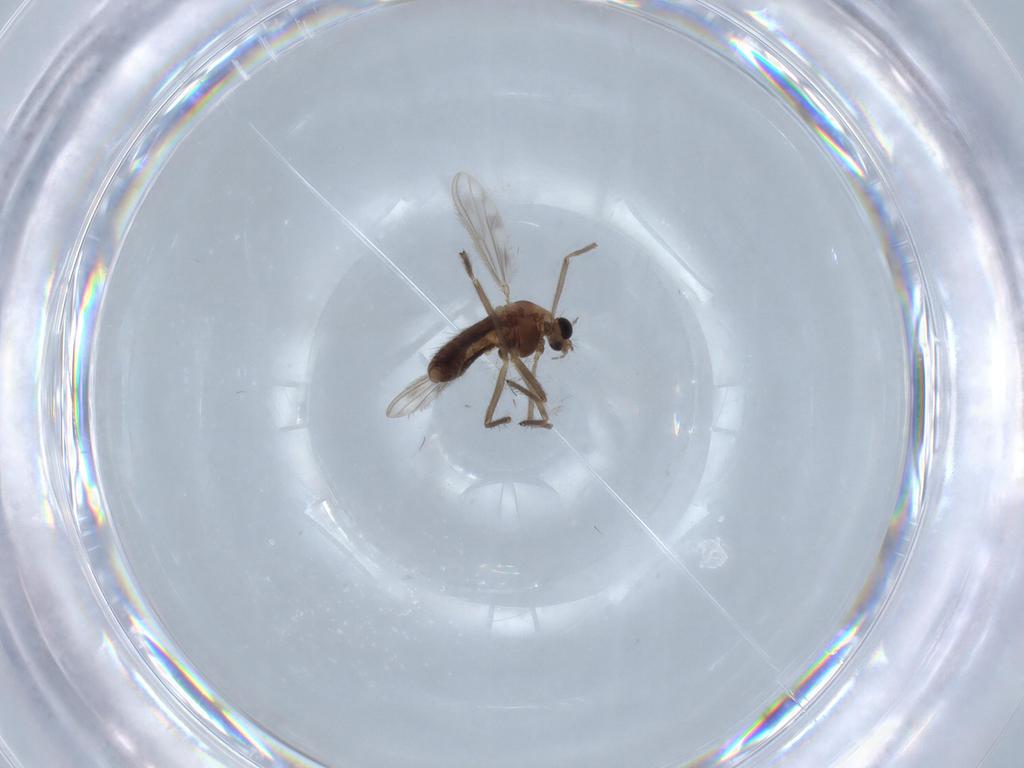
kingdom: Animalia
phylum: Arthropoda
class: Insecta
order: Diptera
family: Chironomidae
